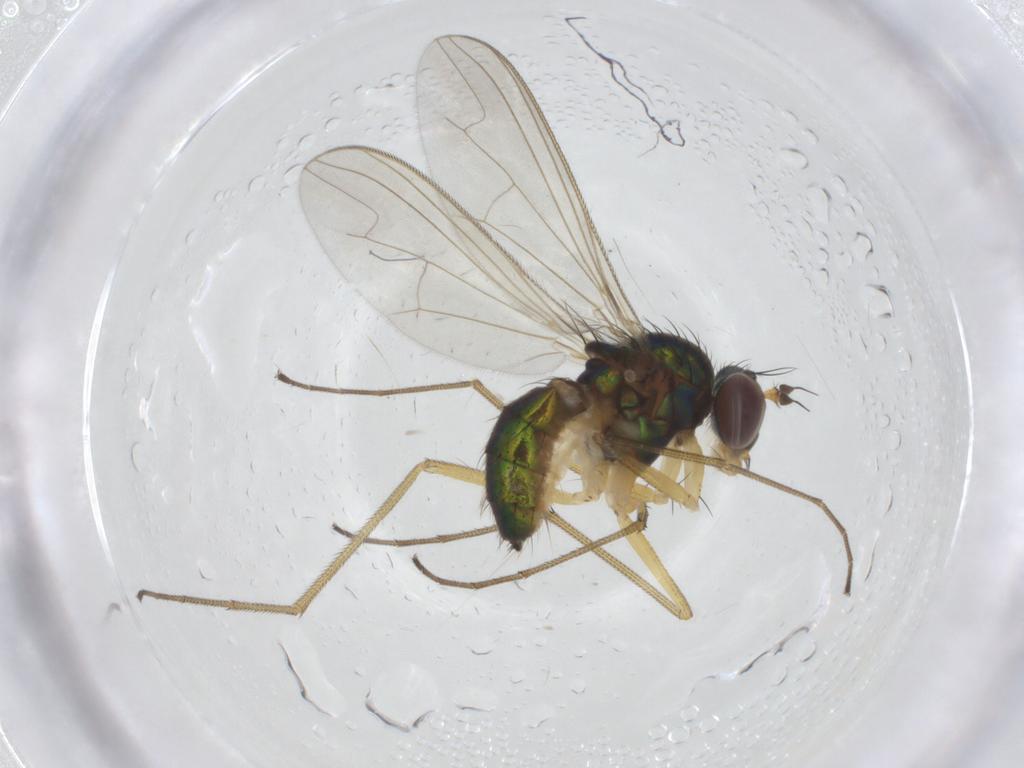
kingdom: Animalia
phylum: Arthropoda
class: Insecta
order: Diptera
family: Dolichopodidae
